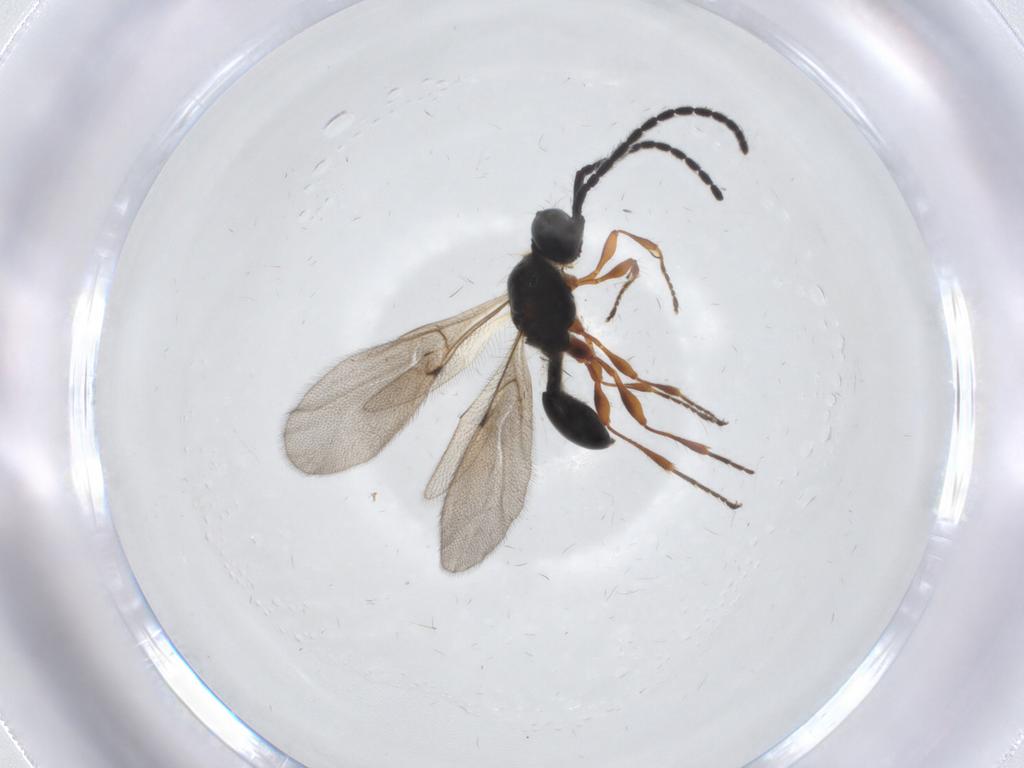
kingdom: Animalia
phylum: Arthropoda
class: Insecta
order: Hymenoptera
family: Diapriidae
